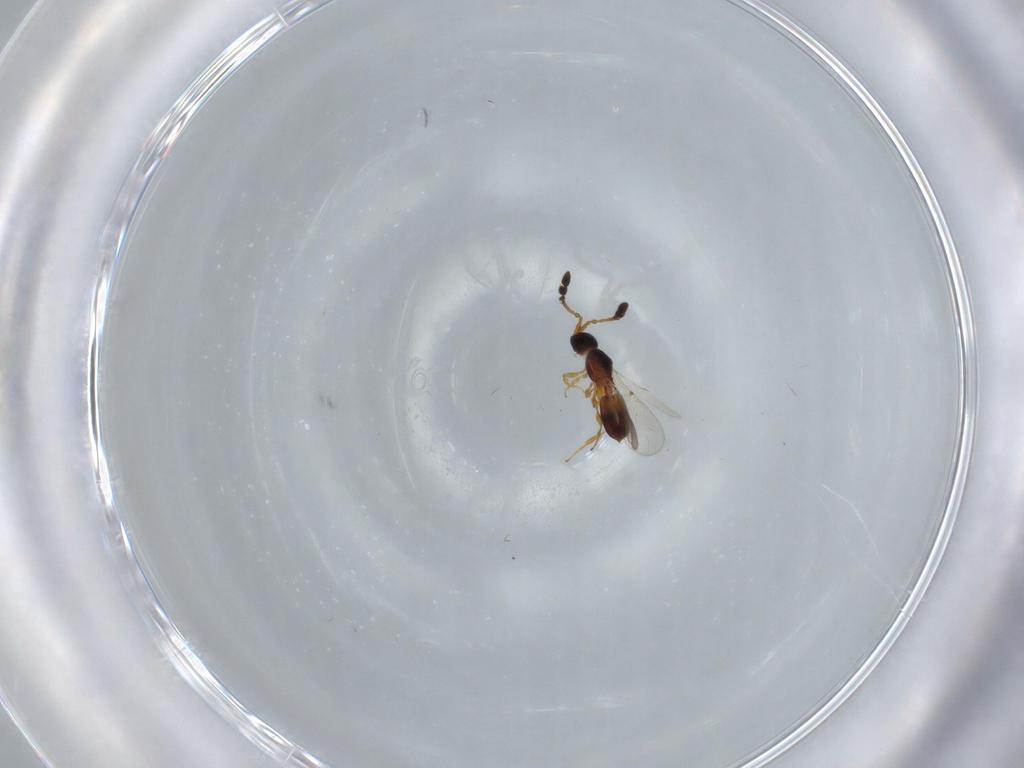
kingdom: Animalia
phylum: Arthropoda
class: Insecta
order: Hymenoptera
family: Diapriidae
